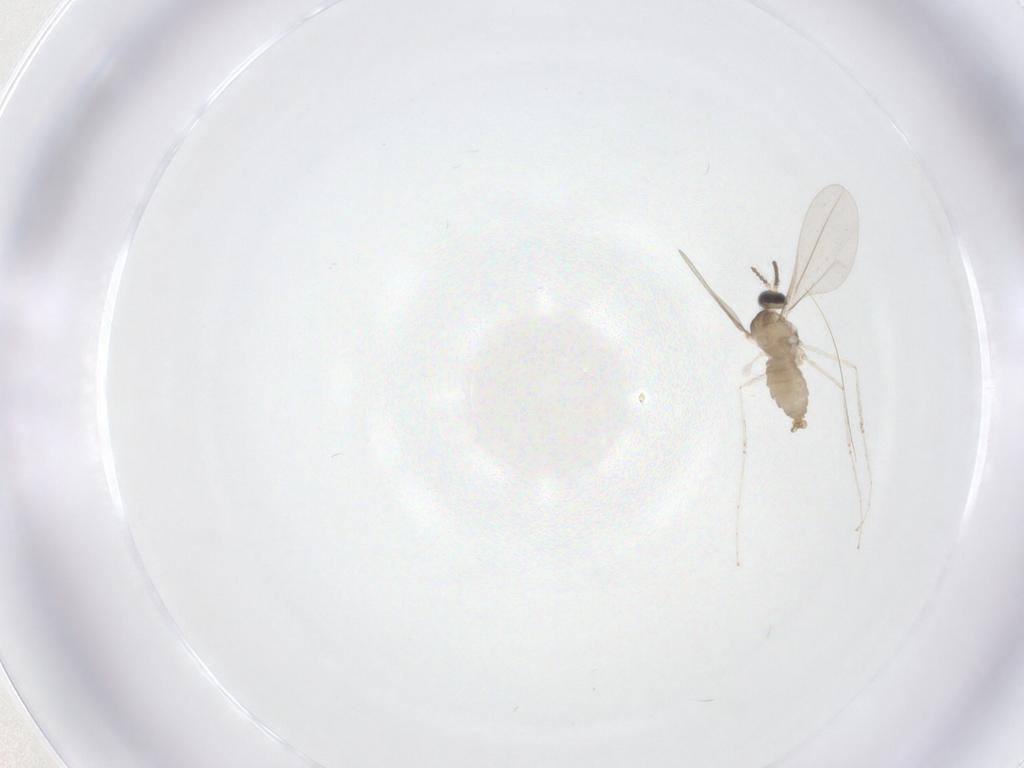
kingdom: Animalia
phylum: Arthropoda
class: Insecta
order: Diptera
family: Cecidomyiidae
